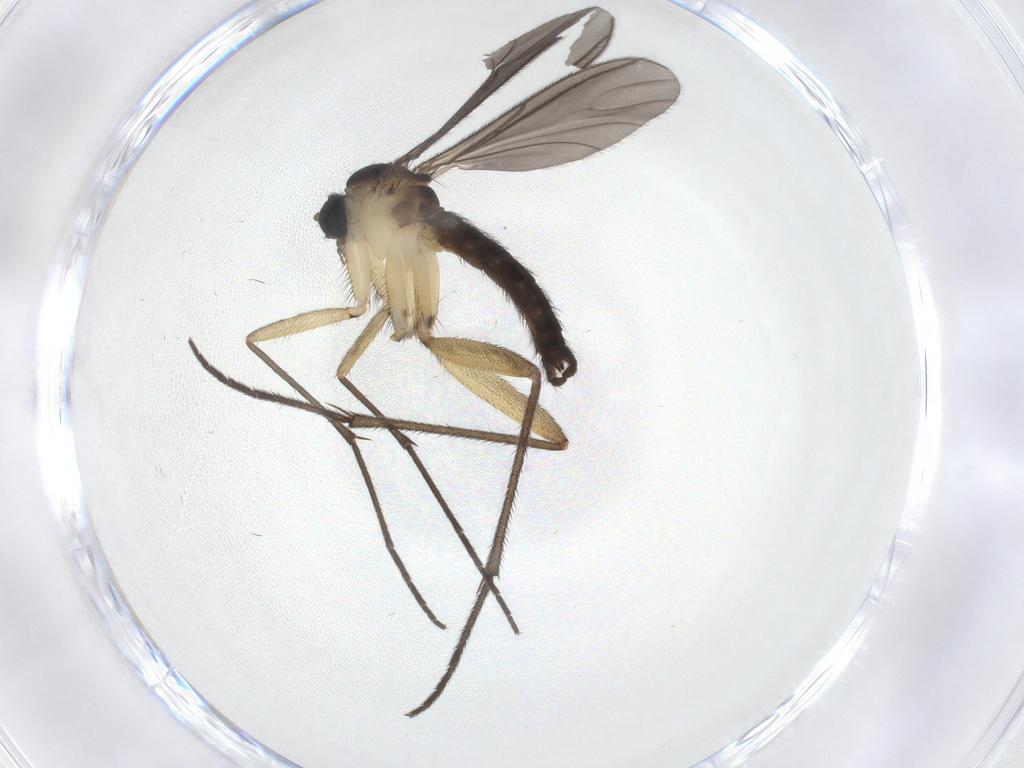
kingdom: Animalia
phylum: Arthropoda
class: Insecta
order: Diptera
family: Sciaridae
